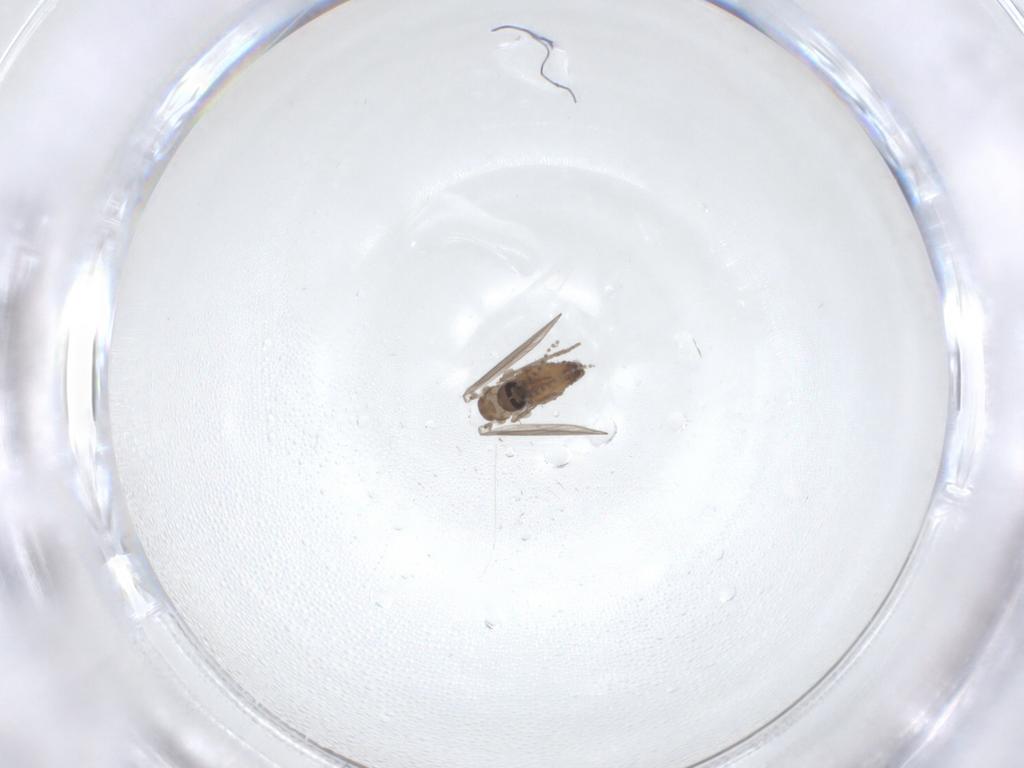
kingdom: Animalia
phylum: Arthropoda
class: Insecta
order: Diptera
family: Psychodidae
